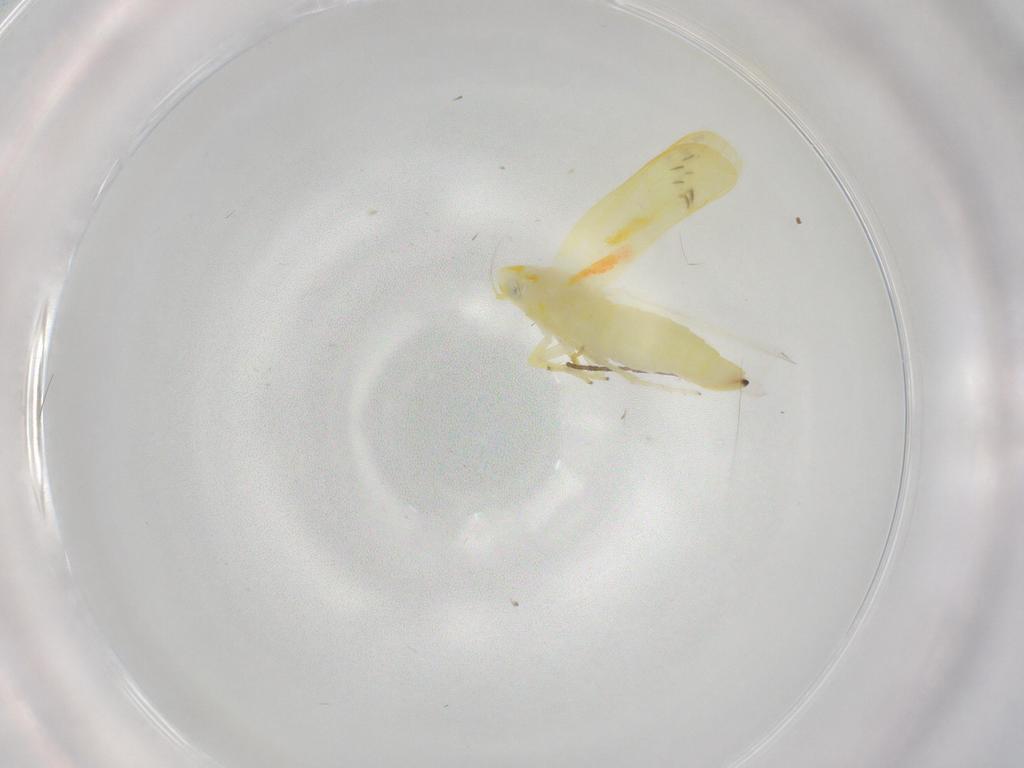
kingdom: Animalia
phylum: Arthropoda
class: Insecta
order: Hemiptera
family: Cicadellidae
